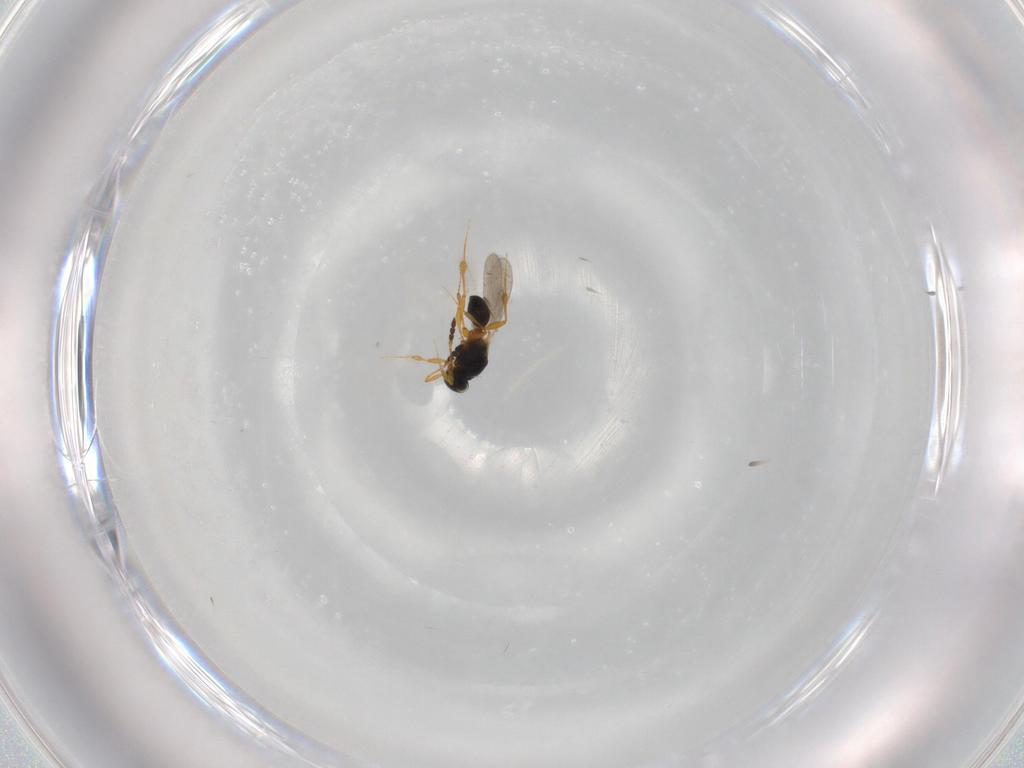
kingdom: Animalia
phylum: Arthropoda
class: Insecta
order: Hymenoptera
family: Platygastridae
